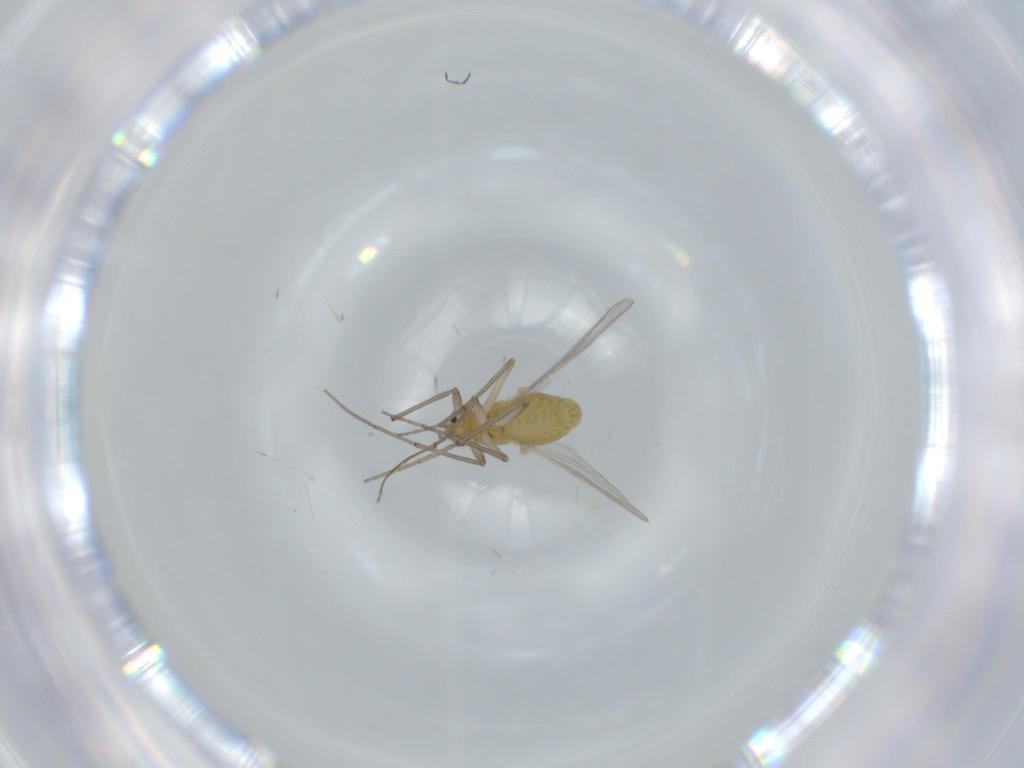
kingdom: Animalia
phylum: Arthropoda
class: Insecta
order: Diptera
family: Chironomidae
